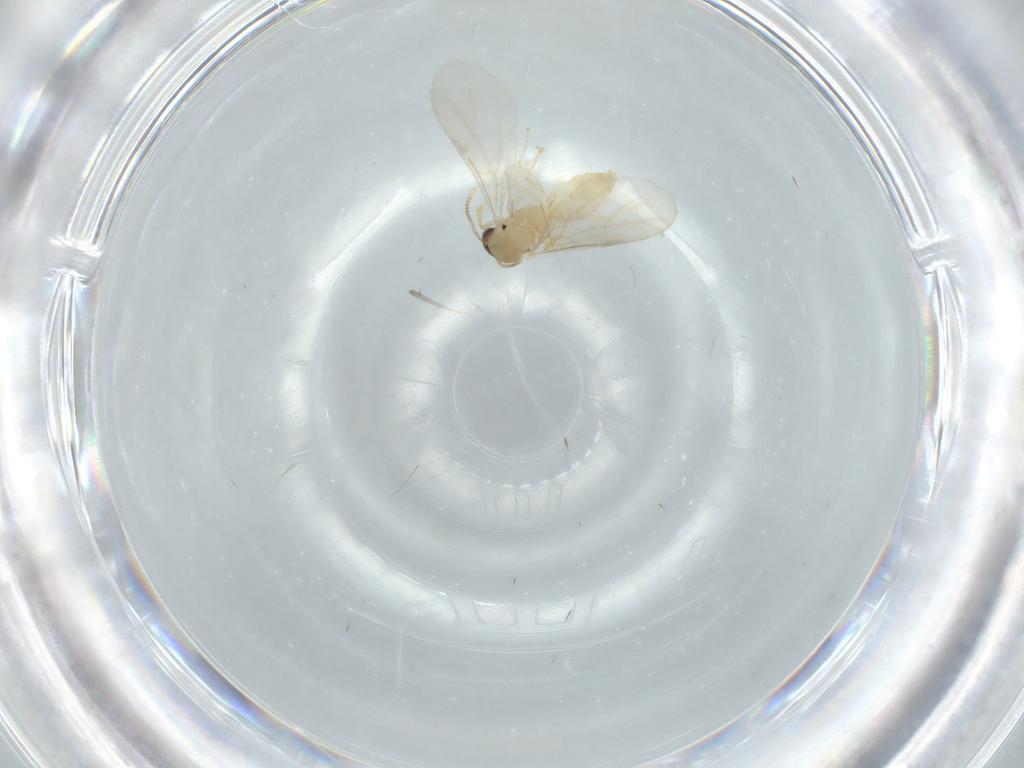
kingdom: Animalia
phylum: Arthropoda
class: Insecta
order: Hymenoptera
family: Formicidae
